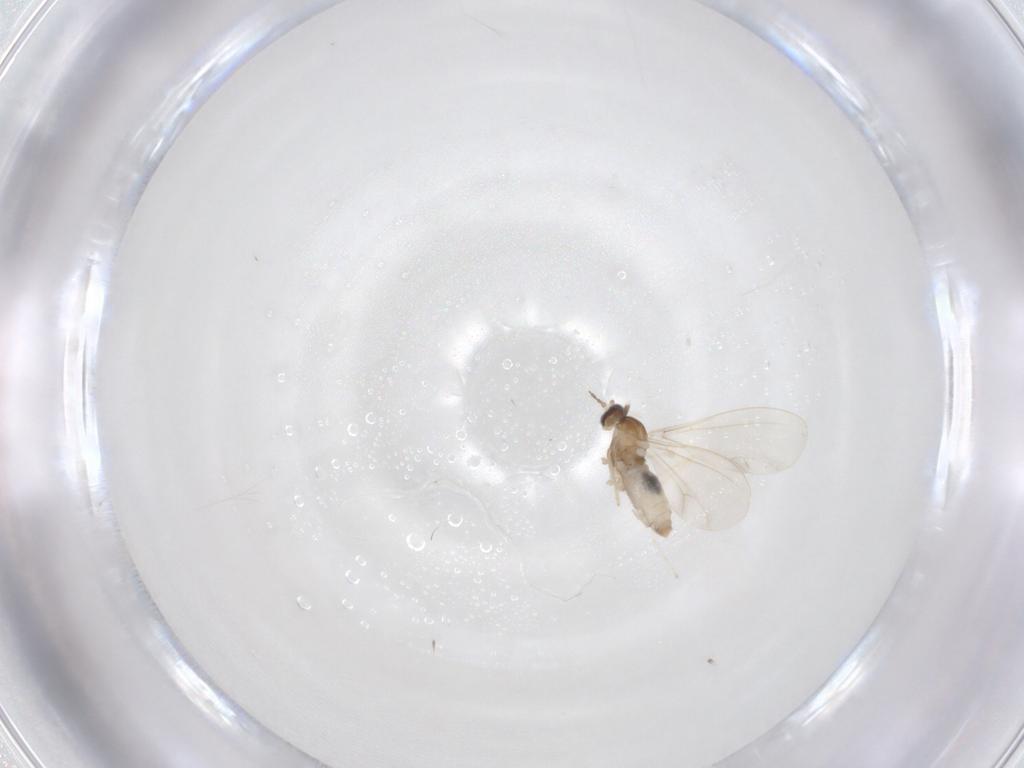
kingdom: Animalia
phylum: Arthropoda
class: Insecta
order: Diptera
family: Cecidomyiidae
